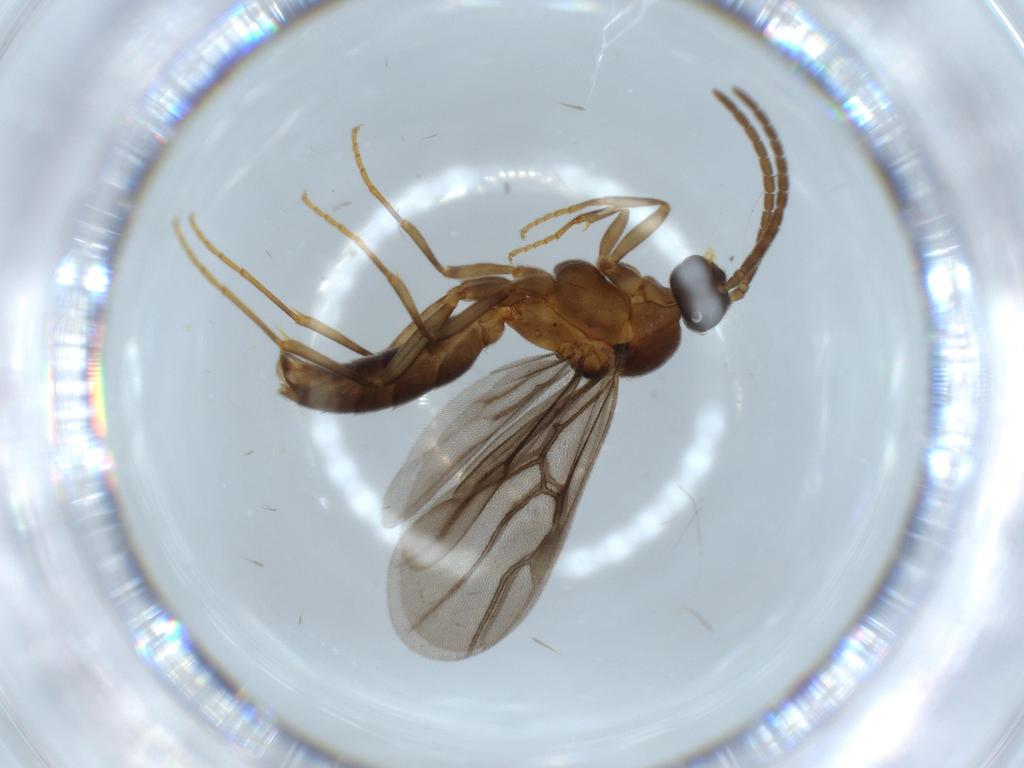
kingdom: Animalia
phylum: Arthropoda
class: Insecta
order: Hymenoptera
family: Formicidae
